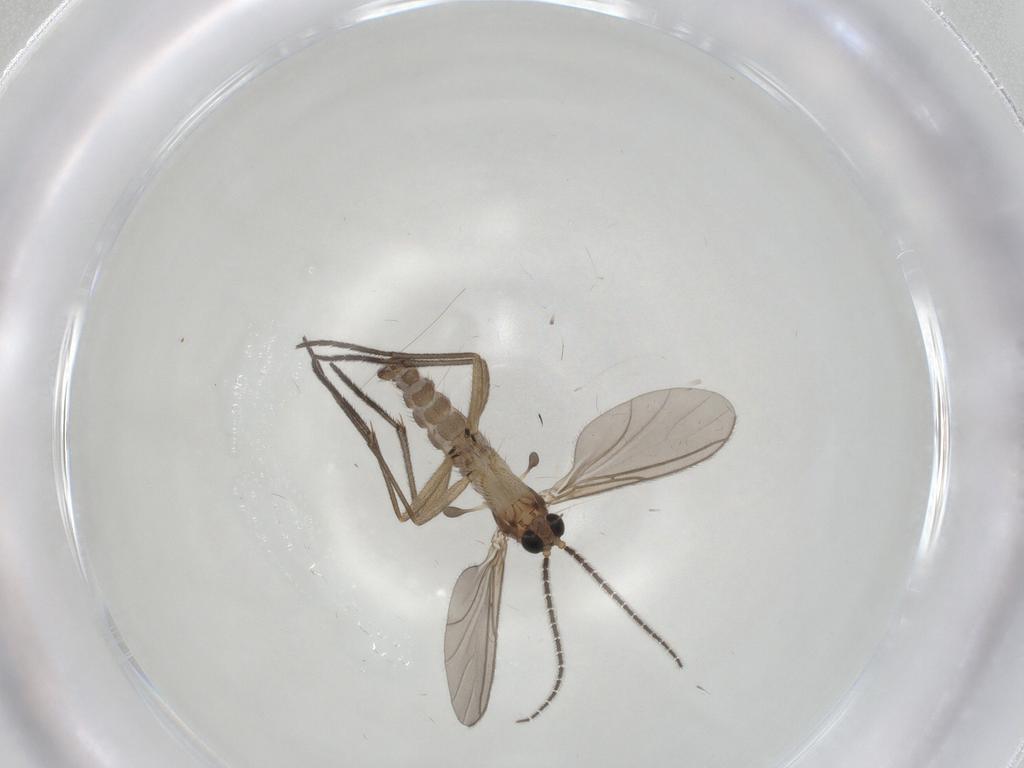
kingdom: Animalia
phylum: Arthropoda
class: Insecta
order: Diptera
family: Sciaridae
